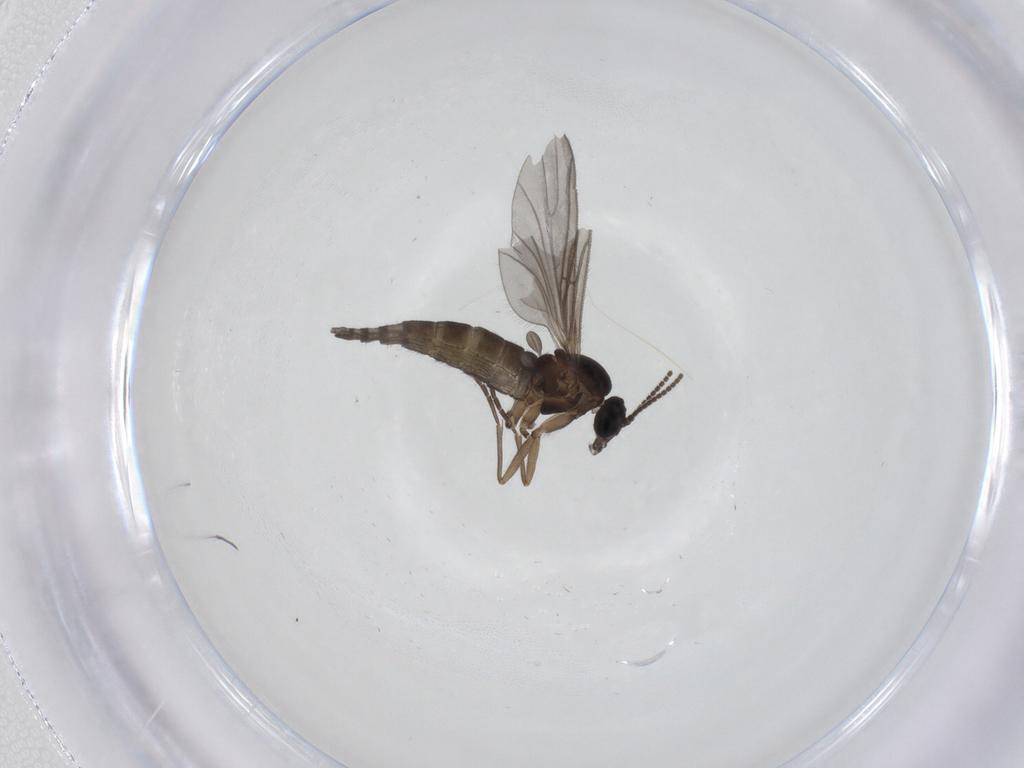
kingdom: Animalia
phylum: Arthropoda
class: Insecta
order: Diptera
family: Sciaridae
